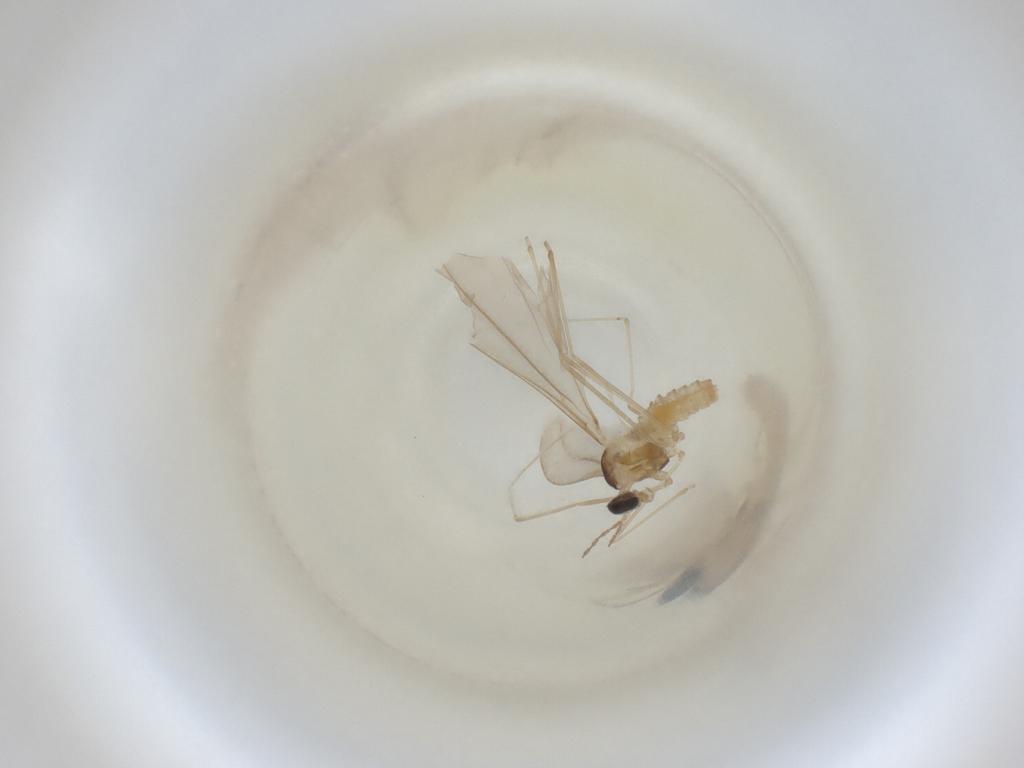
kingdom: Animalia
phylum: Arthropoda
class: Insecta
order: Diptera
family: Cecidomyiidae
